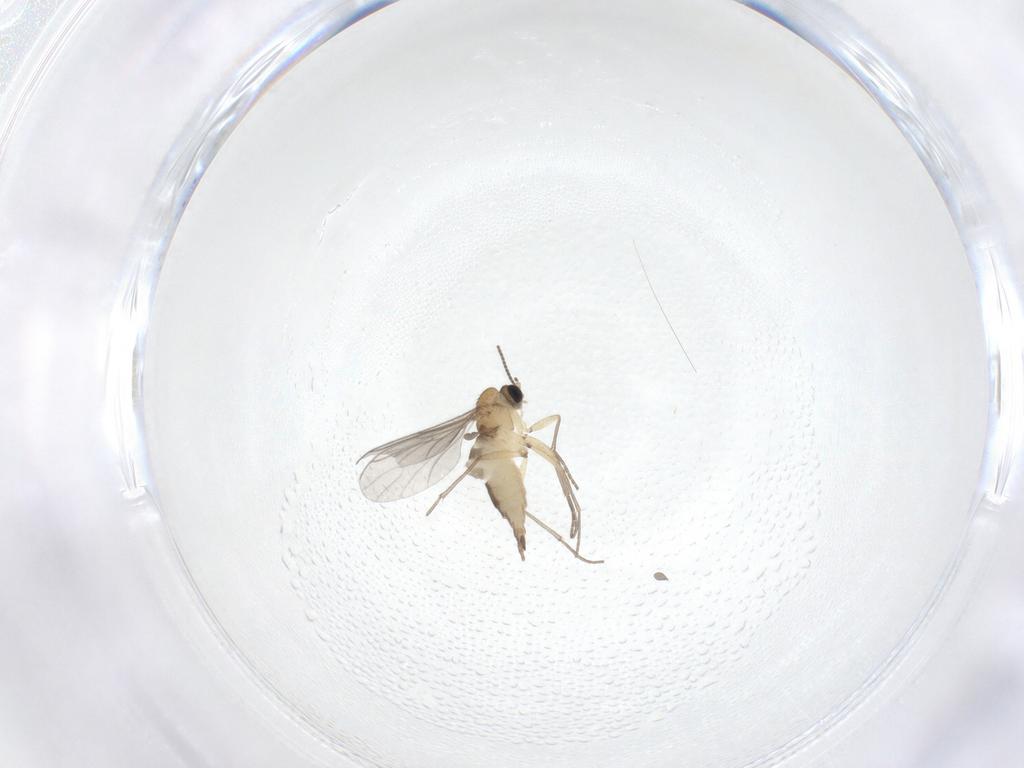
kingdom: Animalia
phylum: Arthropoda
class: Insecta
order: Diptera
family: Sciaridae
